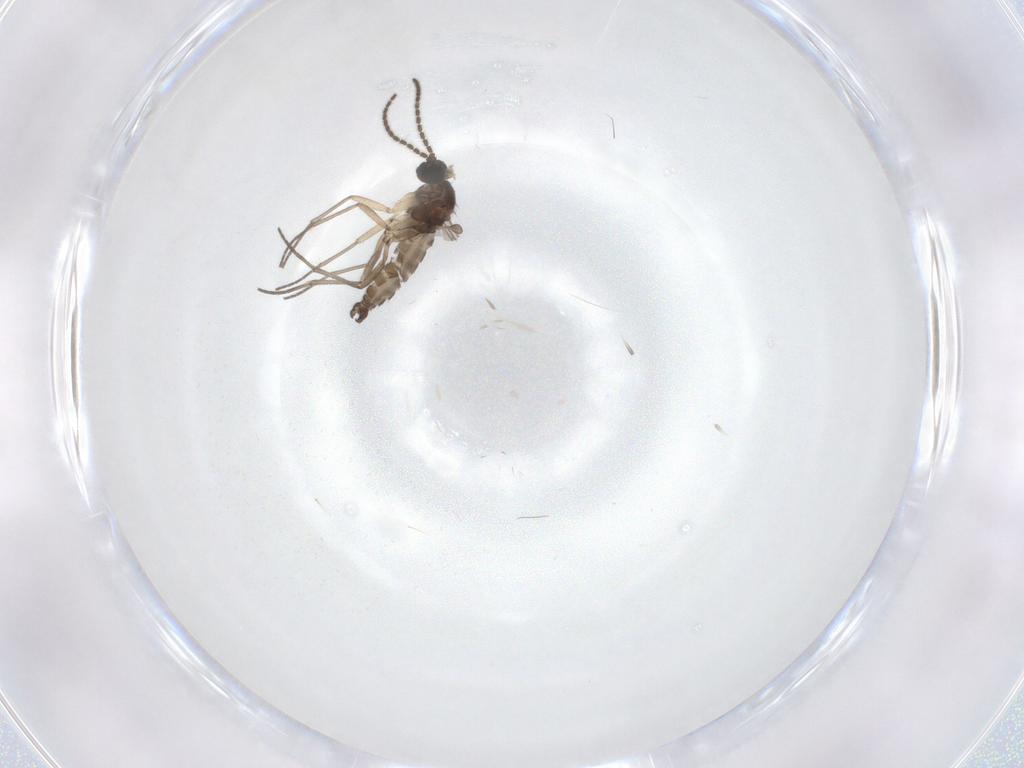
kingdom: Animalia
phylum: Arthropoda
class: Insecta
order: Diptera
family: Sciaridae
